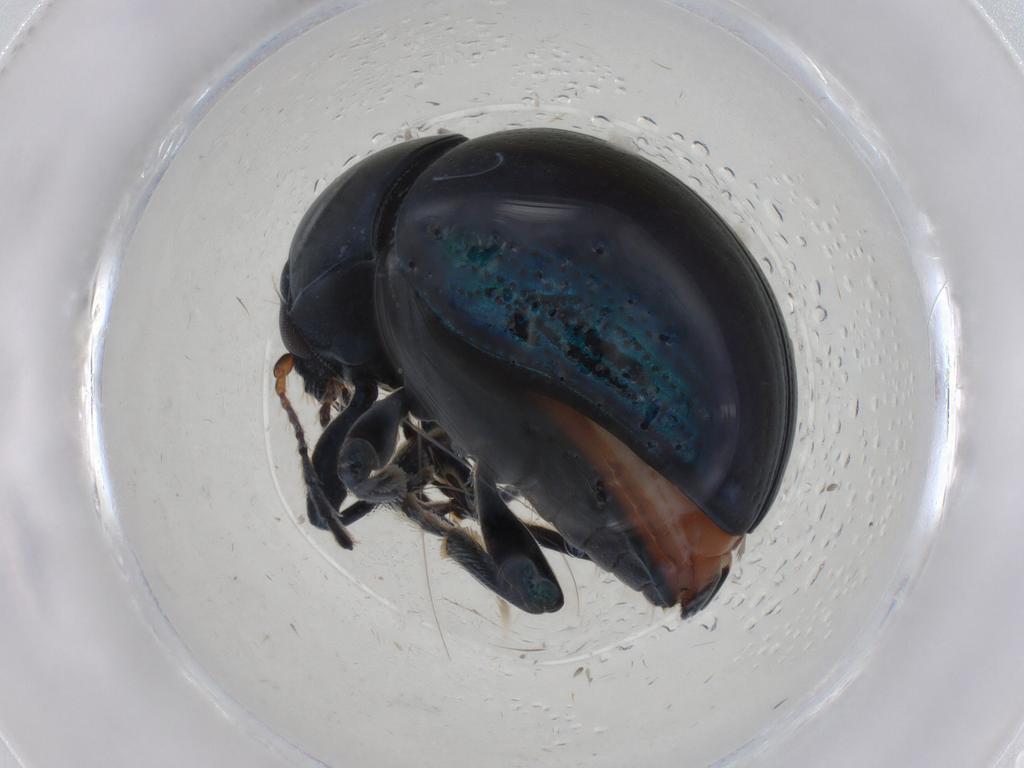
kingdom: Animalia
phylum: Arthropoda
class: Insecta
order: Coleoptera
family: Chrysomelidae
